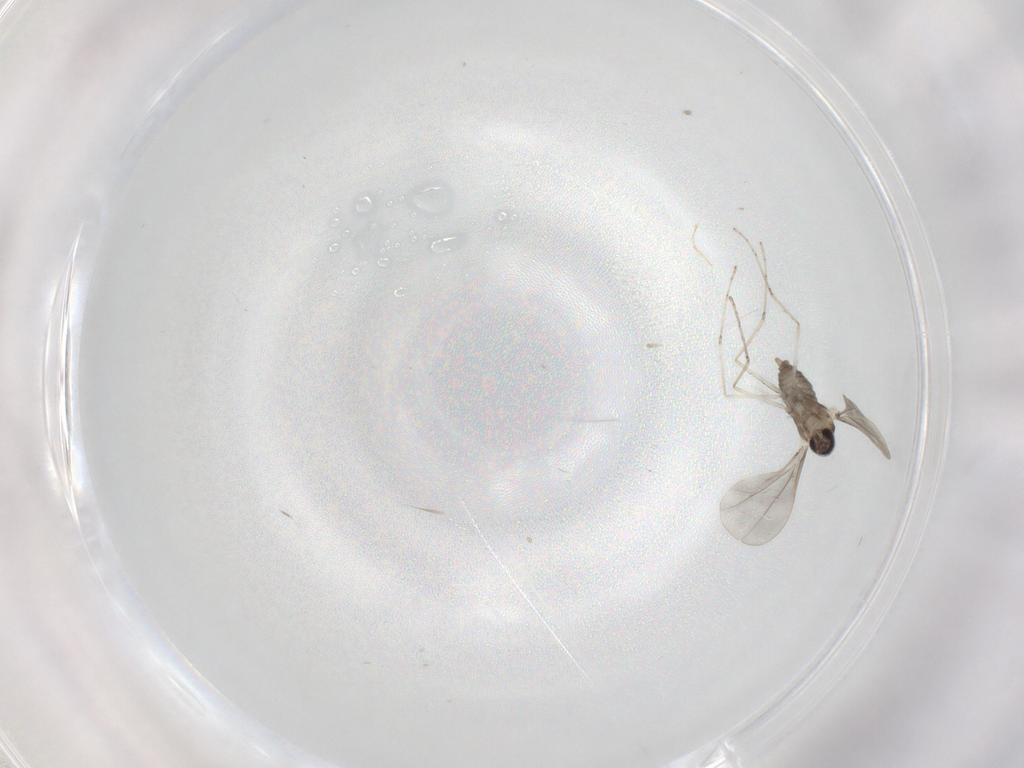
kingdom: Animalia
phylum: Arthropoda
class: Insecta
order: Diptera
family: Cecidomyiidae
